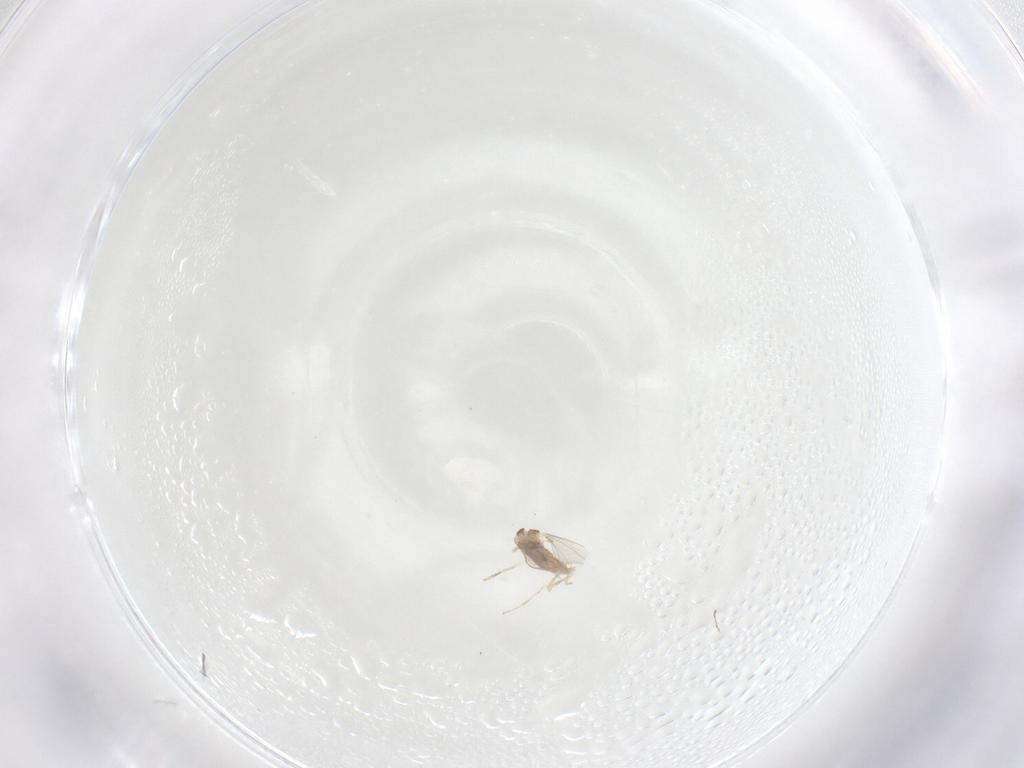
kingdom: Animalia
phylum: Arthropoda
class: Insecta
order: Diptera
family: Cecidomyiidae
